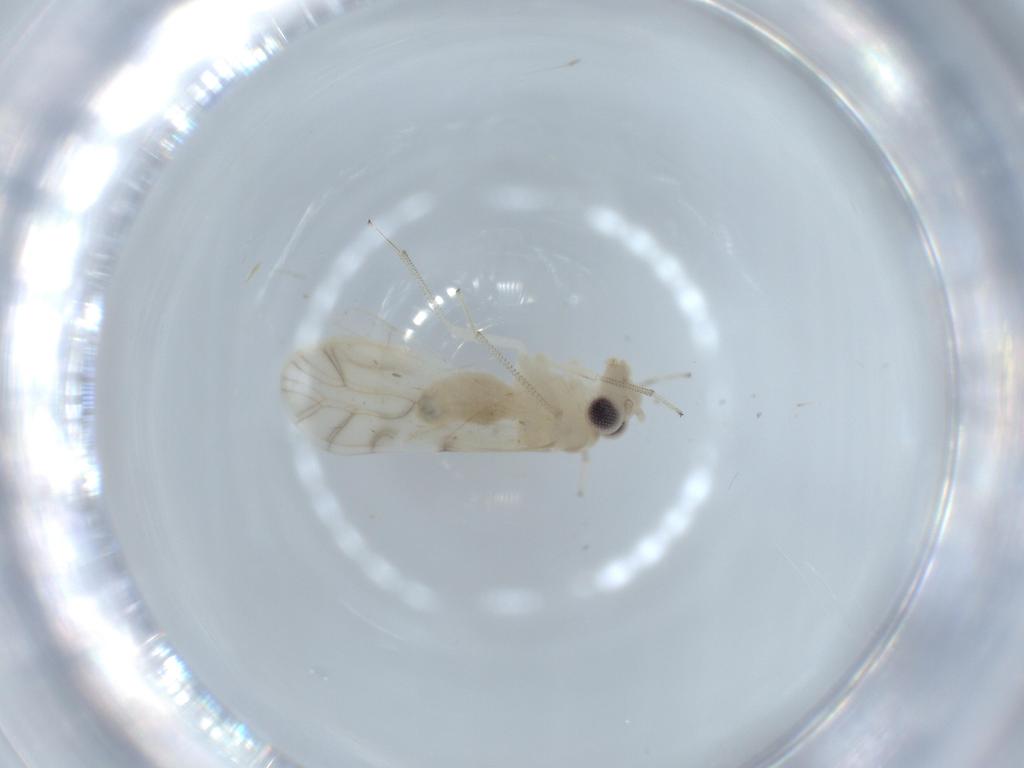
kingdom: Animalia
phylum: Arthropoda
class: Insecta
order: Psocodea
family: Caeciliusidae
